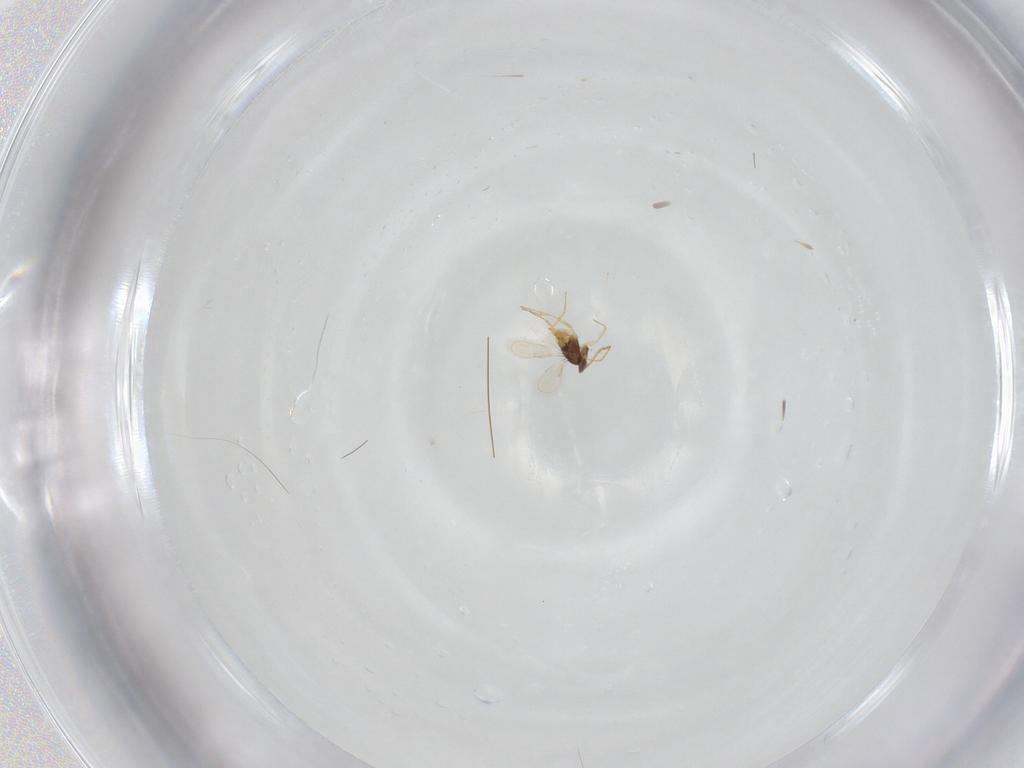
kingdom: Animalia
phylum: Arthropoda
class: Insecta
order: Hymenoptera
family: Aphelinidae
